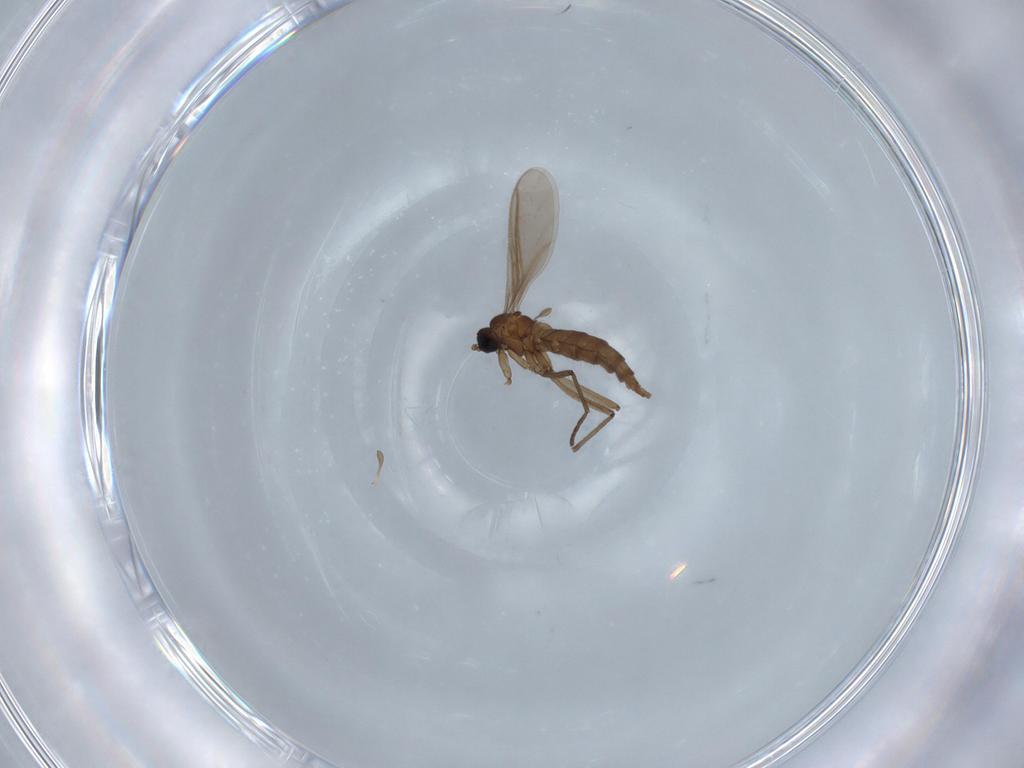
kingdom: Animalia
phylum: Arthropoda
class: Insecta
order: Diptera
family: Sciaridae
